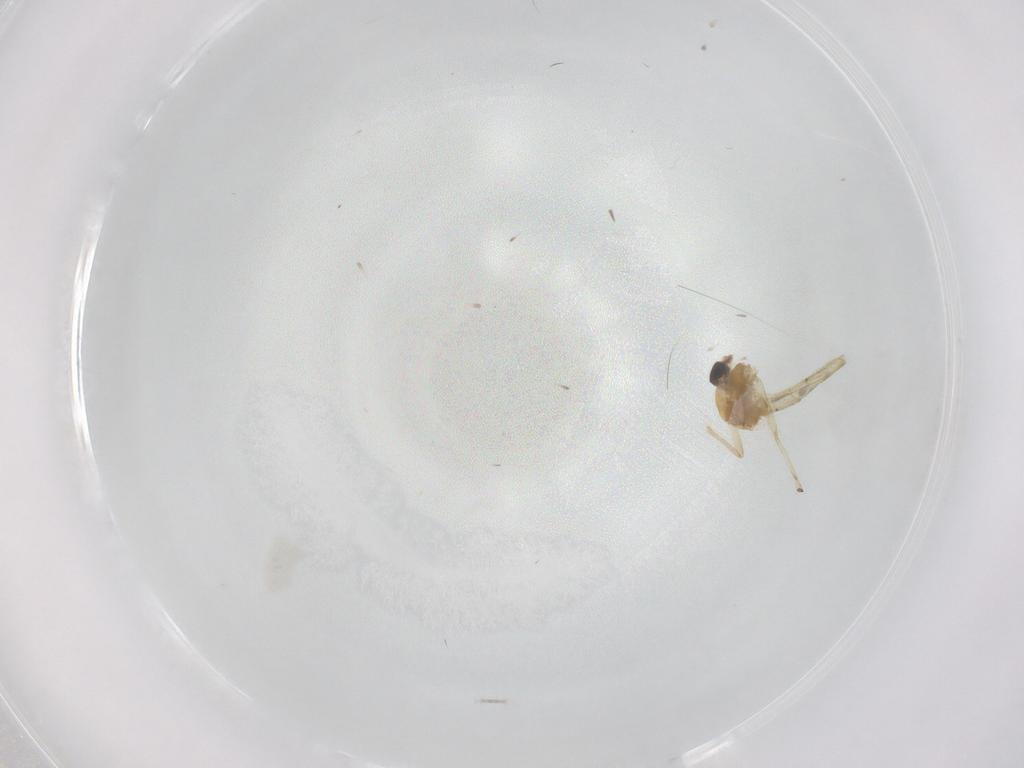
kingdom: Animalia
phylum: Arthropoda
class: Insecta
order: Diptera
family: Chironomidae
